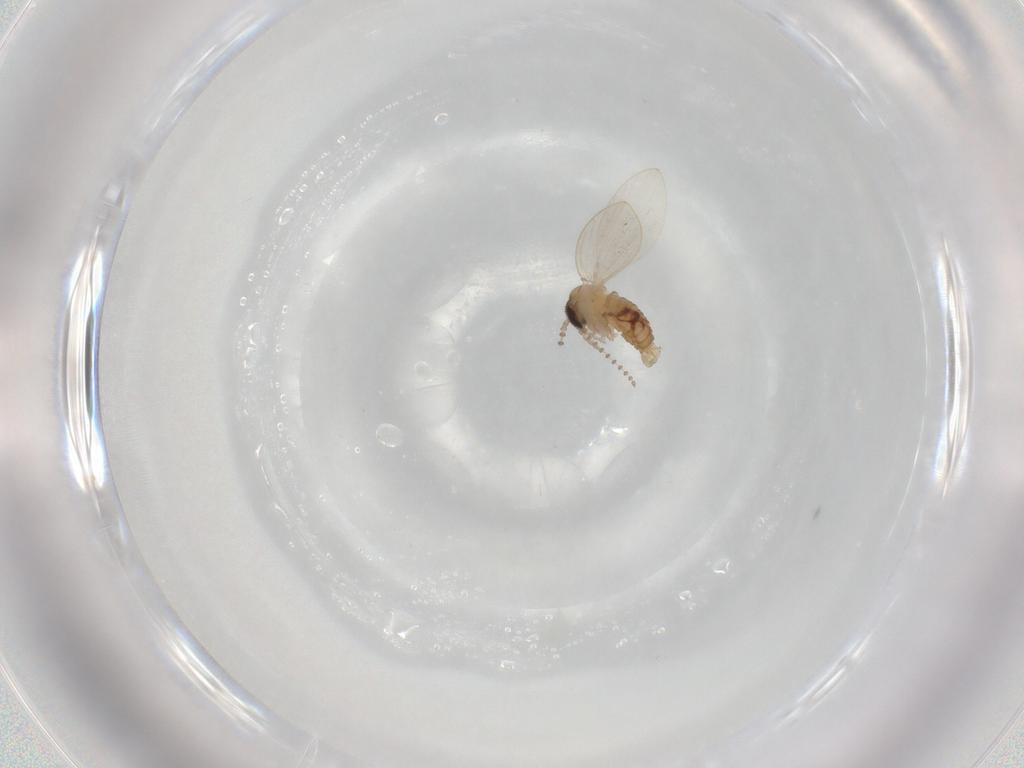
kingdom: Animalia
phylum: Arthropoda
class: Insecta
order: Diptera
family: Psychodidae
